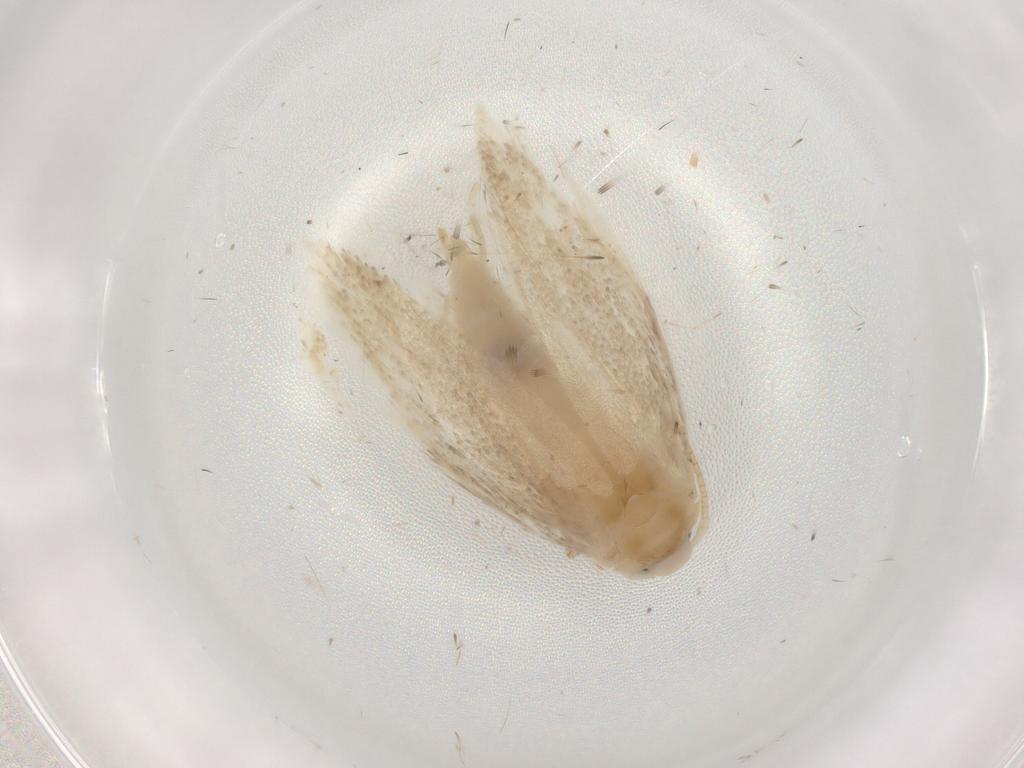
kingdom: Animalia
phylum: Arthropoda
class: Insecta
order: Lepidoptera
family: Elachistidae
